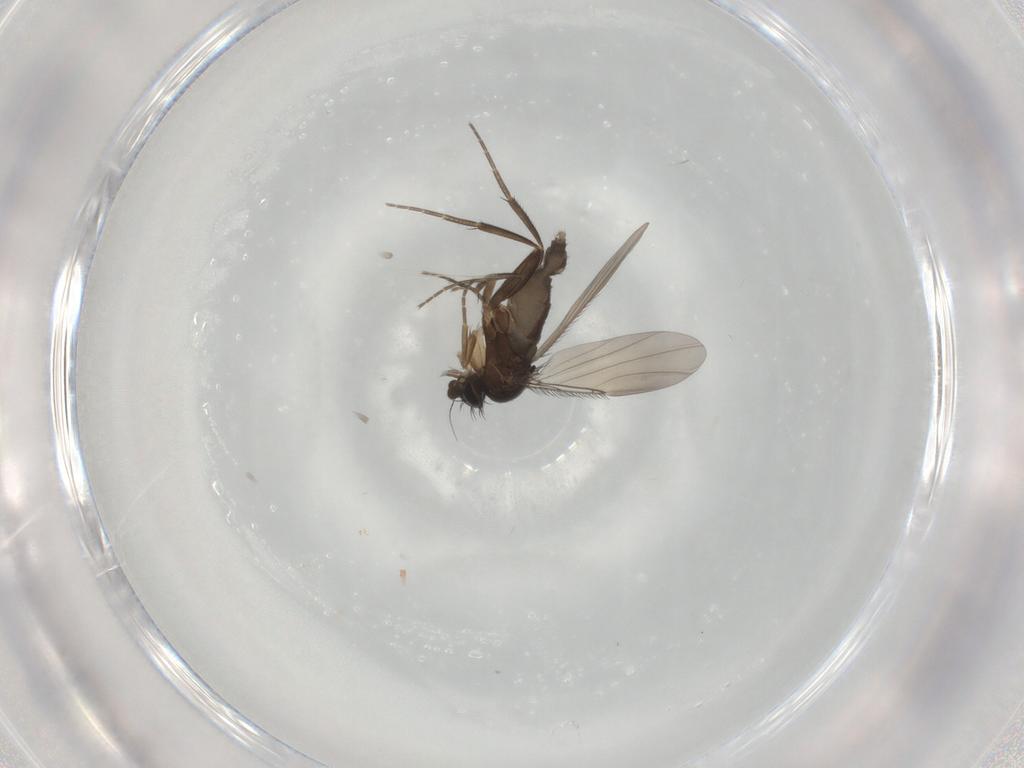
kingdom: Animalia
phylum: Arthropoda
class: Insecta
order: Diptera
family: Phoridae
